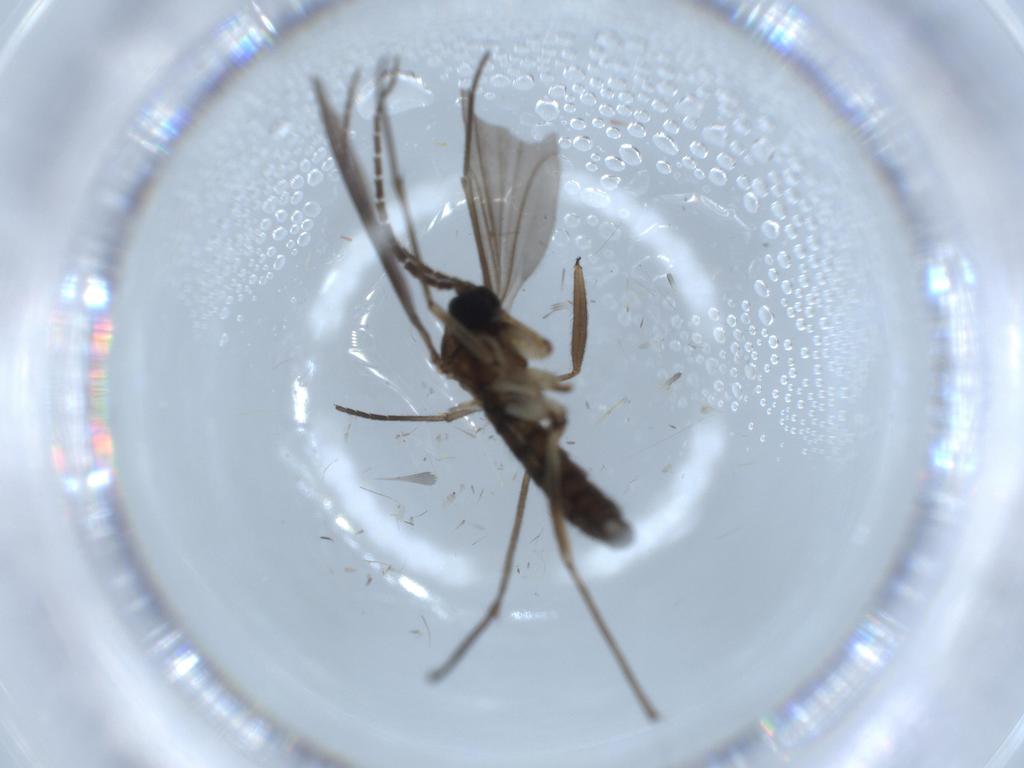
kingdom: Animalia
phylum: Arthropoda
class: Insecta
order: Diptera
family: Sciaridae
